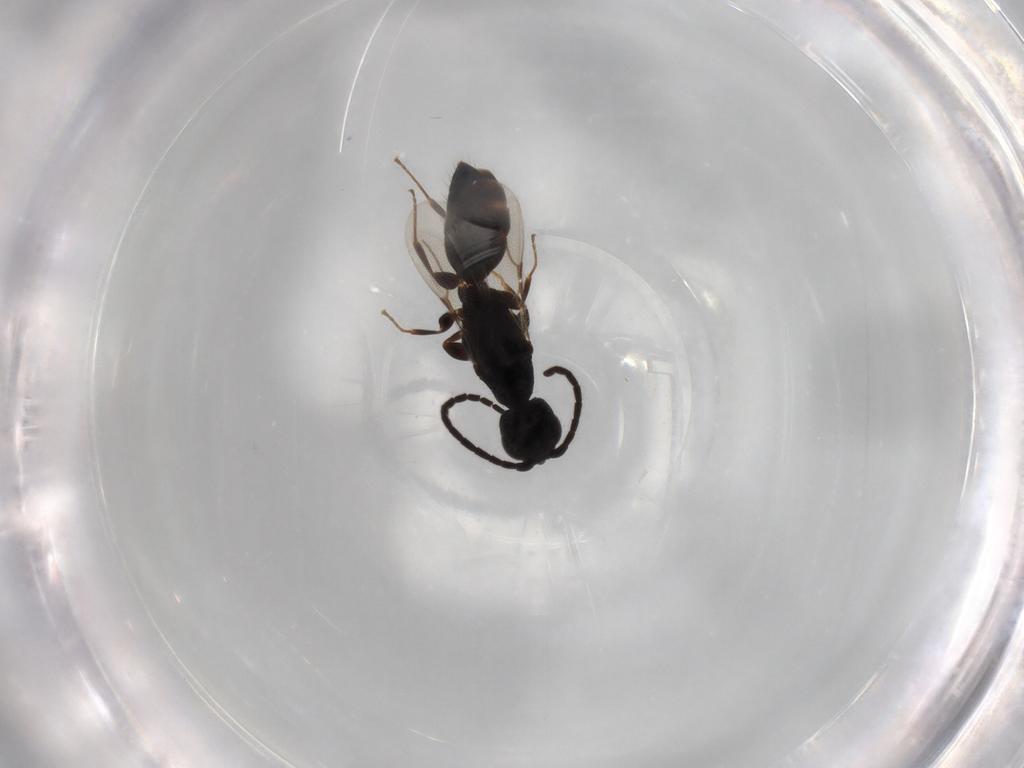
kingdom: Animalia
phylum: Arthropoda
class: Insecta
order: Hymenoptera
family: Bethylidae
